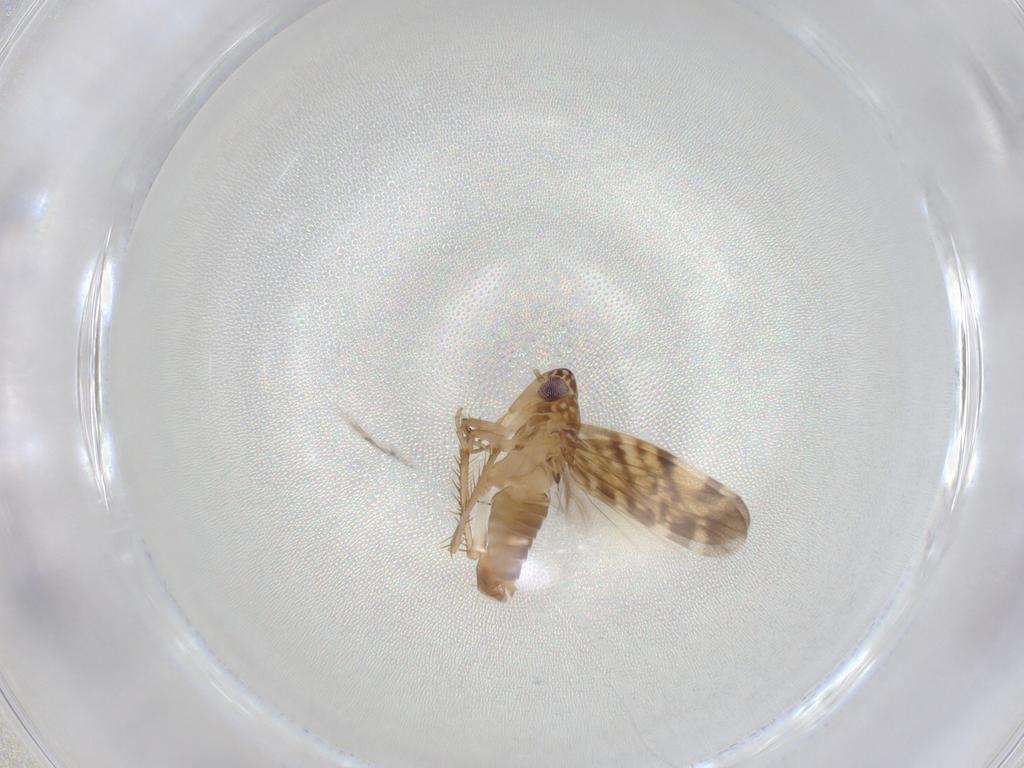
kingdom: Animalia
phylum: Arthropoda
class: Insecta
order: Hemiptera
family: Cicadellidae
